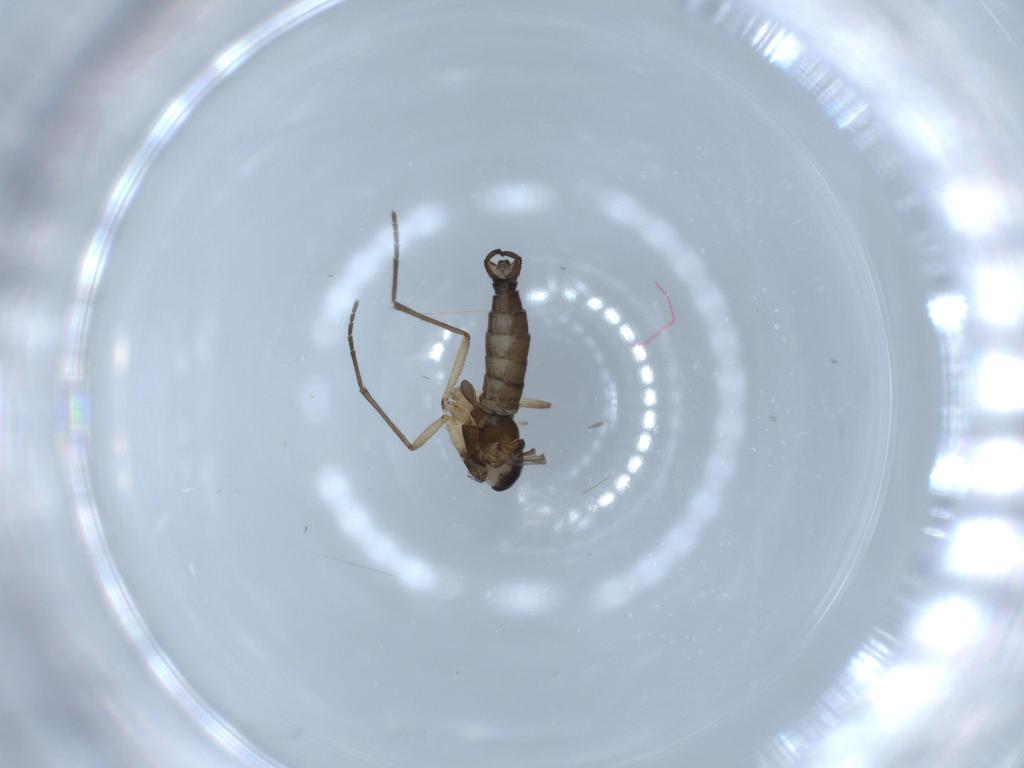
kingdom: Animalia
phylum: Arthropoda
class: Insecta
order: Diptera
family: Sciaridae
